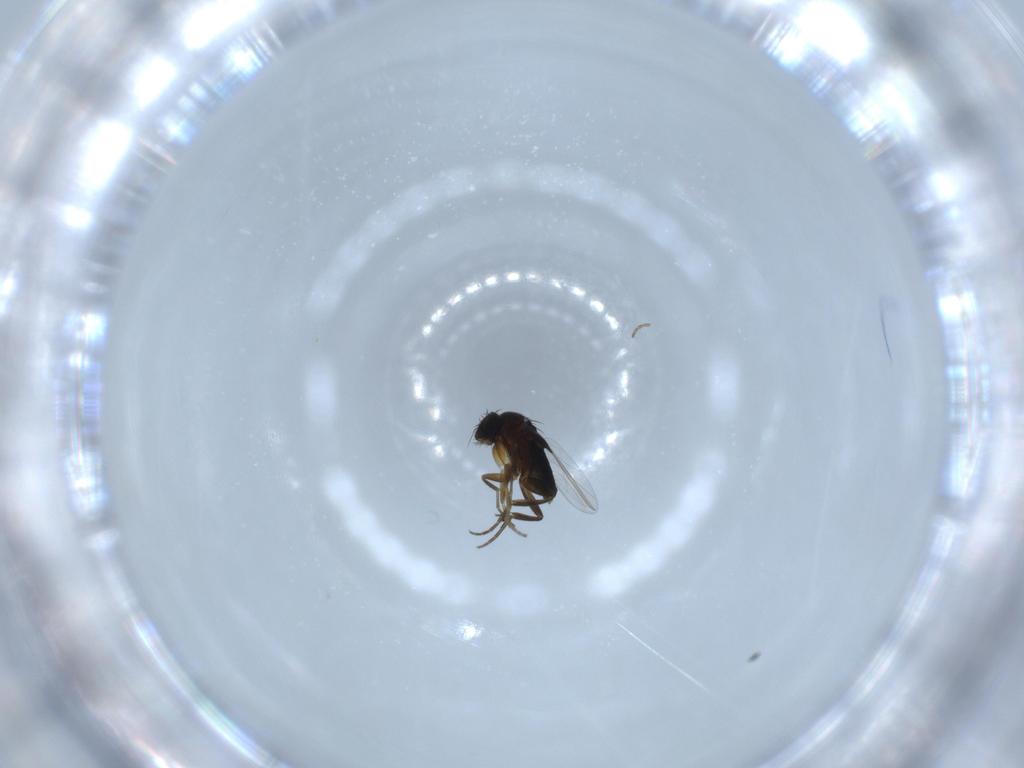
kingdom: Animalia
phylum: Arthropoda
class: Insecta
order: Diptera
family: Phoridae
